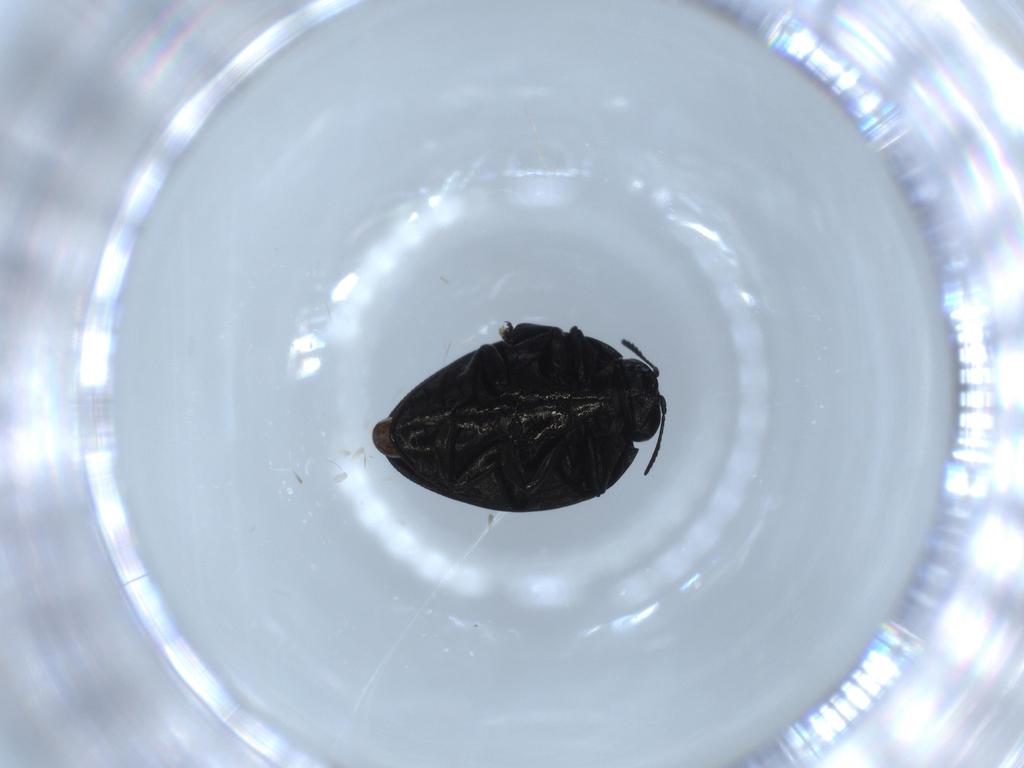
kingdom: Animalia
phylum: Arthropoda
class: Insecta
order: Coleoptera
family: Buprestidae
